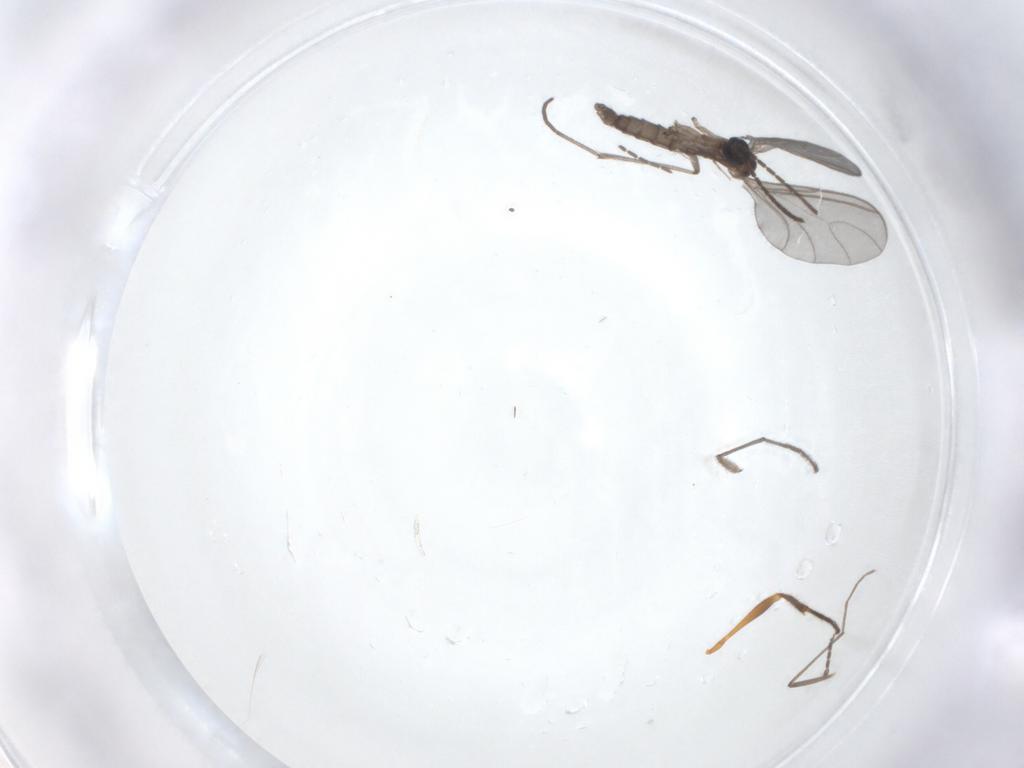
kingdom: Animalia
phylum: Arthropoda
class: Insecta
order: Diptera
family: Sciaridae
